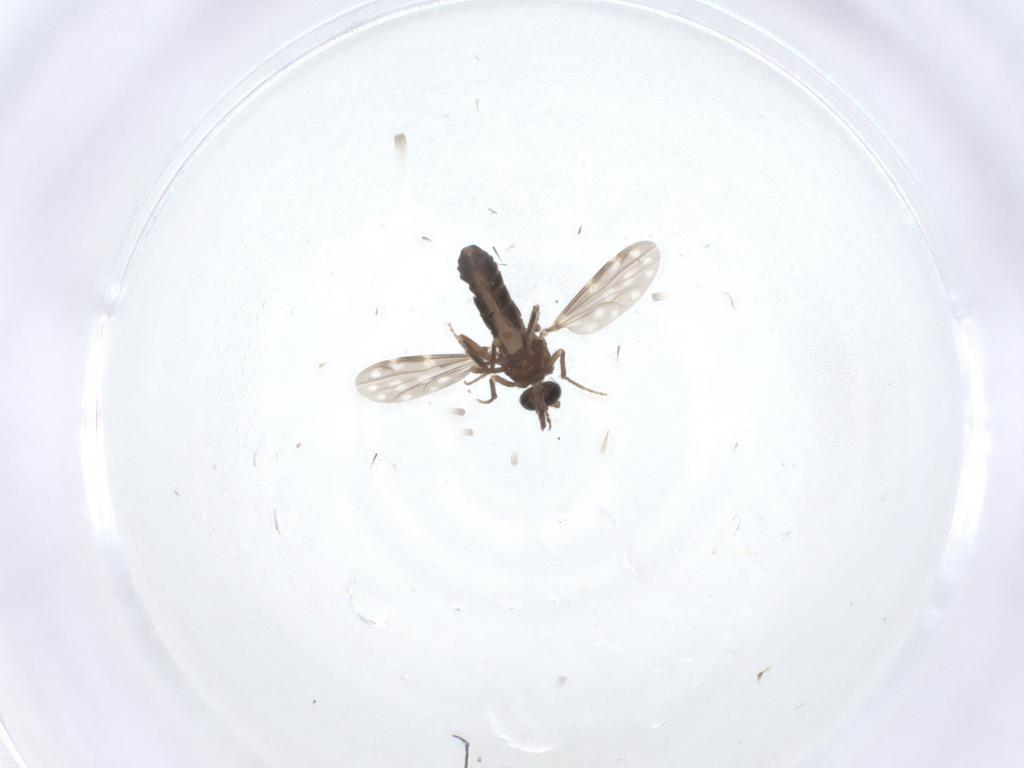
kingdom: Animalia
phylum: Arthropoda
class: Insecta
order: Diptera
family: Ceratopogonidae
